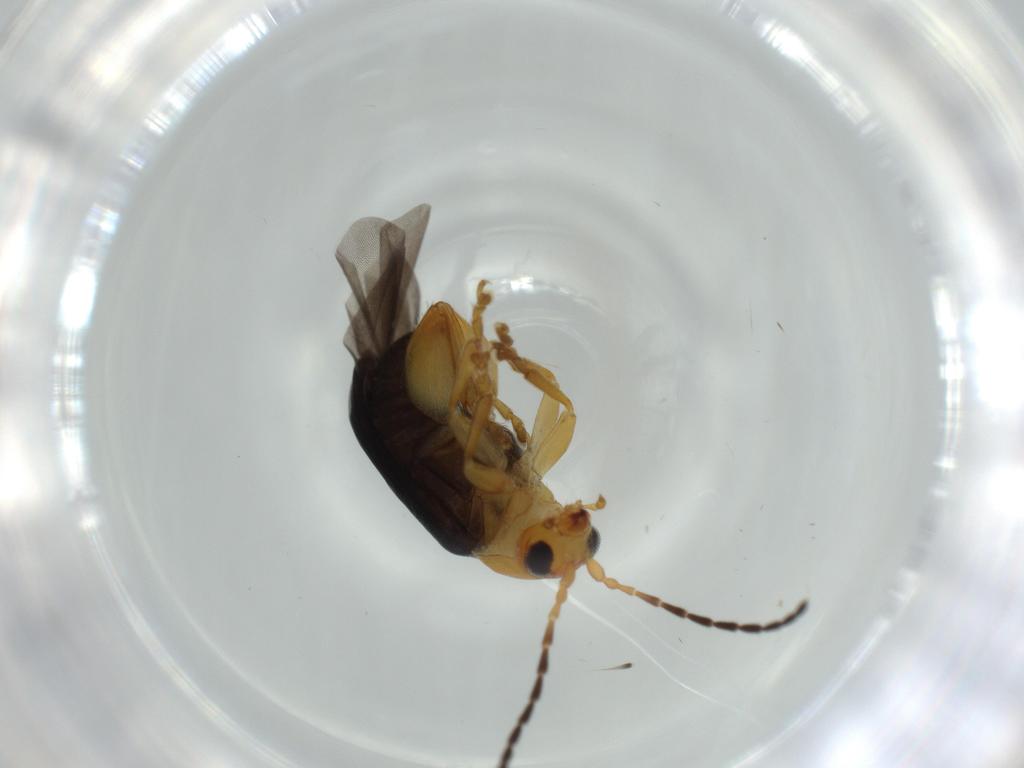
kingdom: Animalia
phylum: Arthropoda
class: Insecta
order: Coleoptera
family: Chrysomelidae
